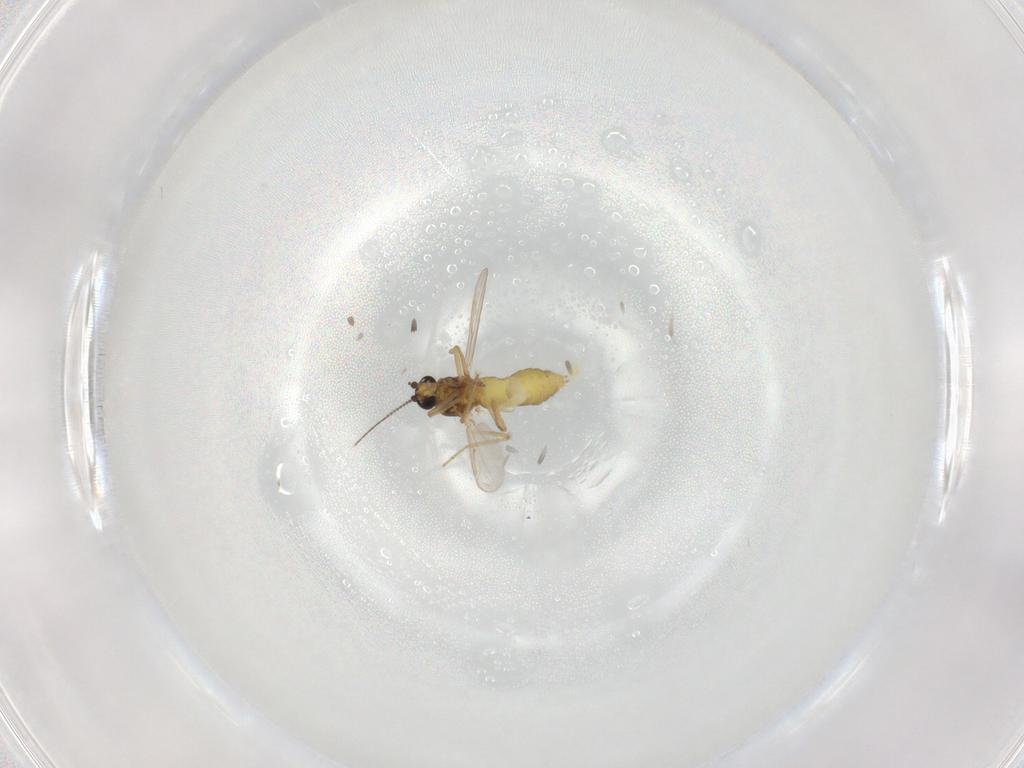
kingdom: Animalia
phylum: Arthropoda
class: Insecta
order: Diptera
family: Ceratopogonidae
